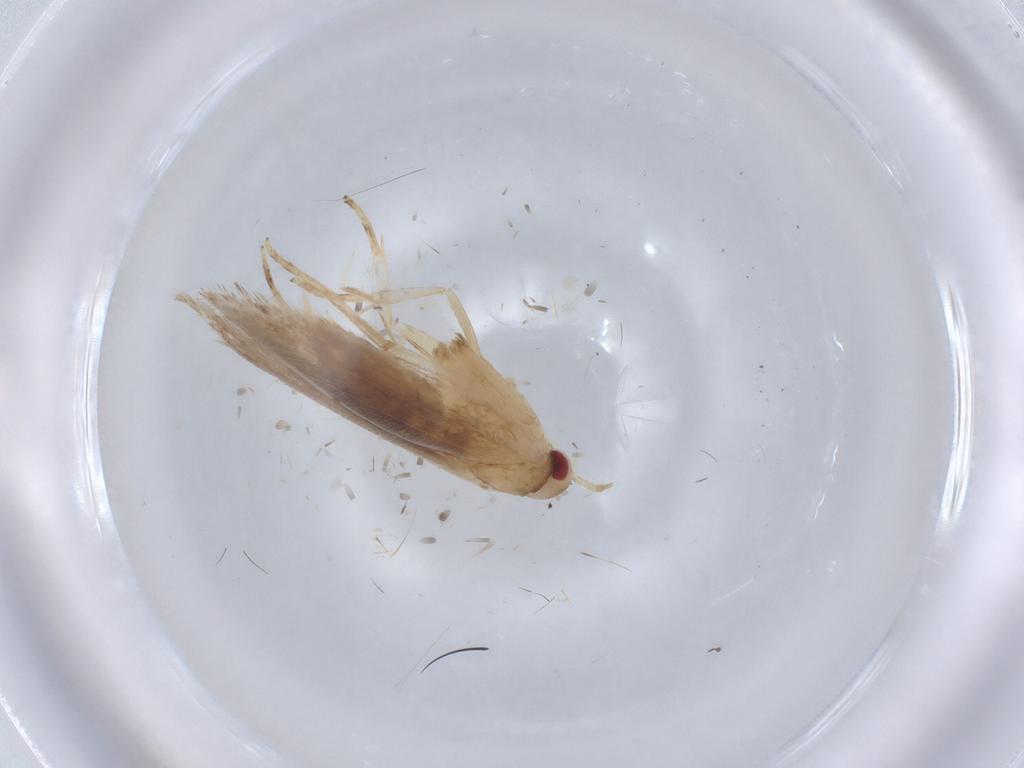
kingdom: Animalia
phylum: Arthropoda
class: Insecta
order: Lepidoptera
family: Cosmopterigidae
